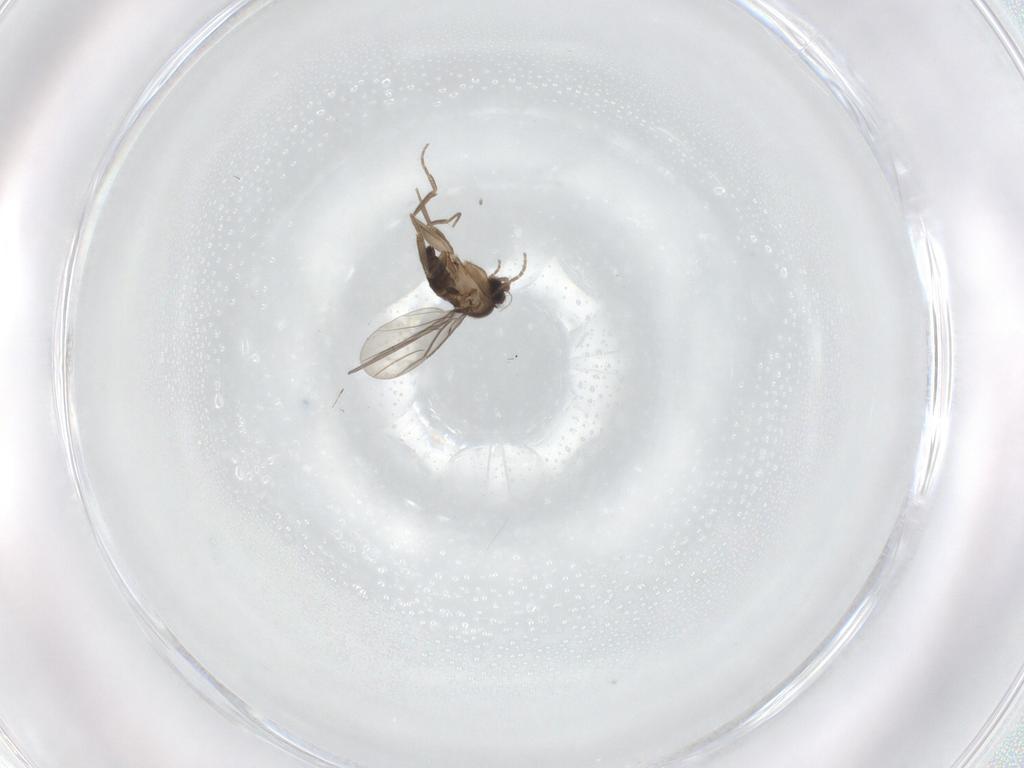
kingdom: Animalia
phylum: Arthropoda
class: Insecta
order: Diptera
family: Phoridae
